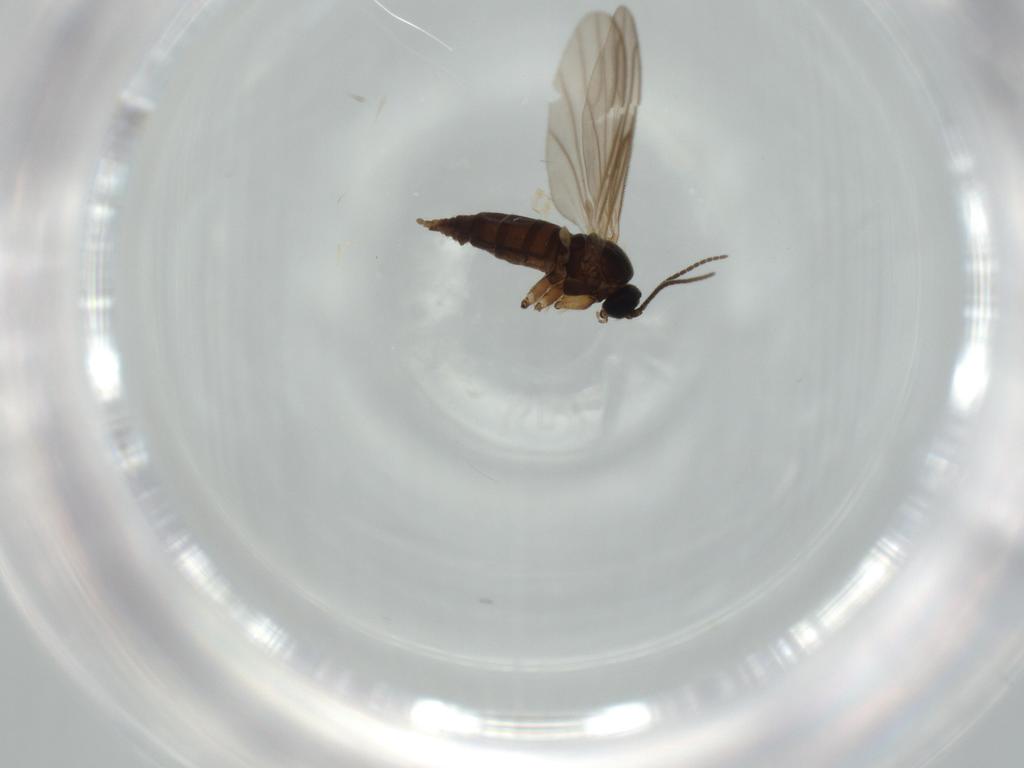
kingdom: Animalia
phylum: Arthropoda
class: Insecta
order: Diptera
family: Sciaridae
